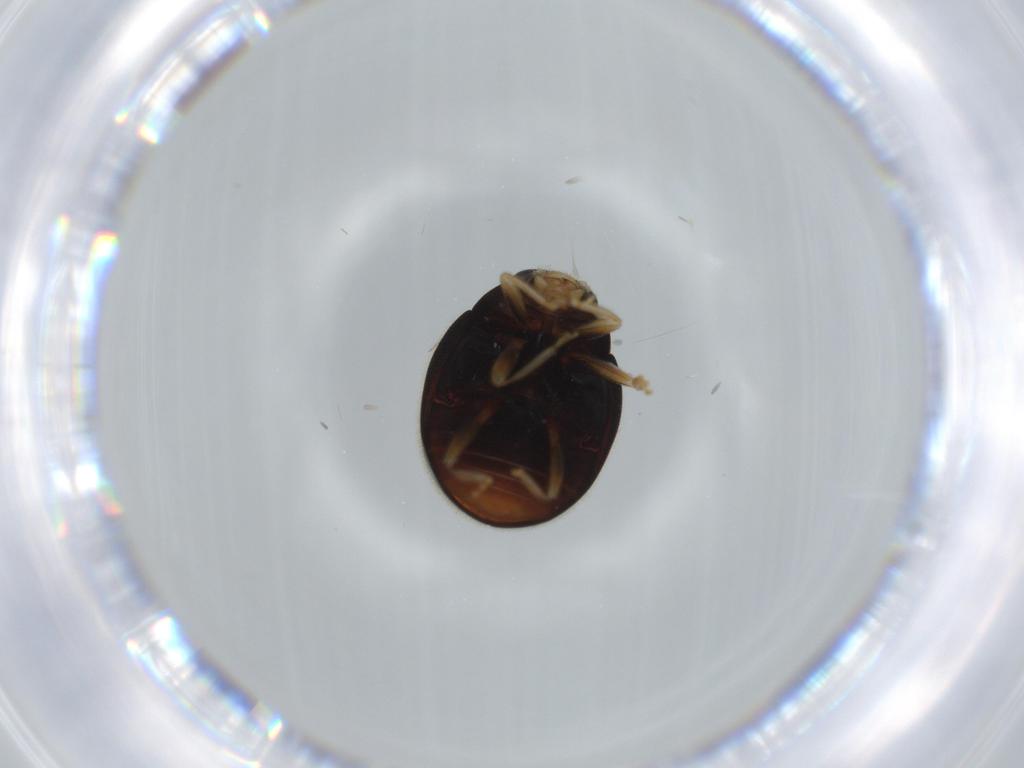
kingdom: Animalia
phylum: Arthropoda
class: Insecta
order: Coleoptera
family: Coccinellidae
